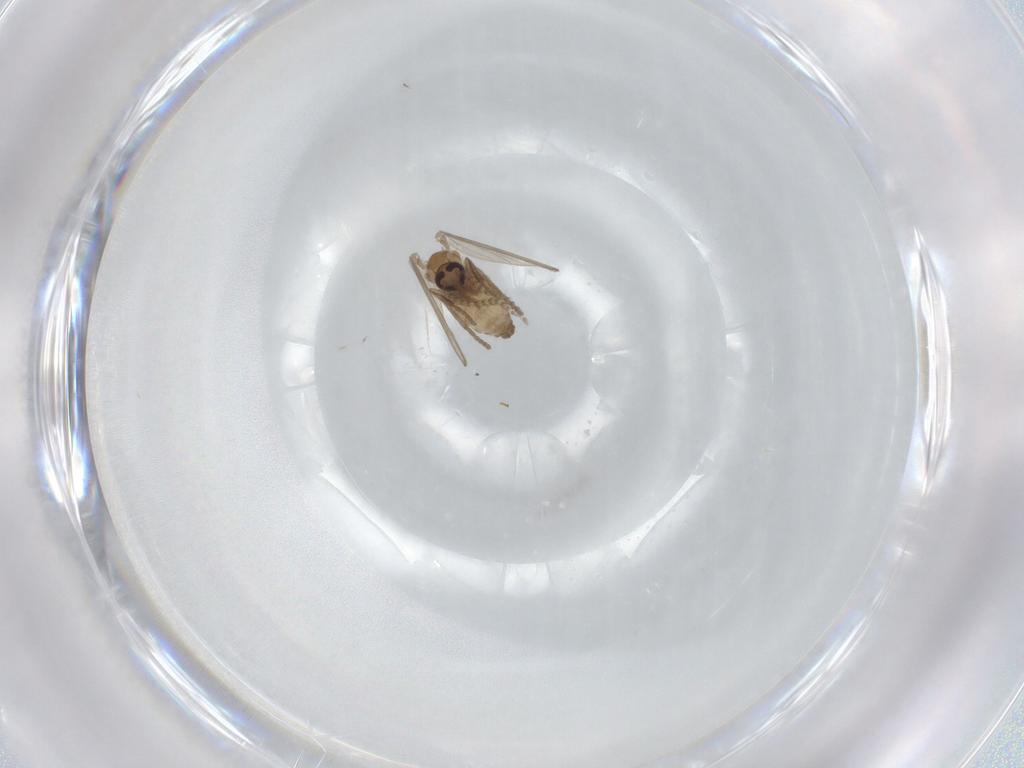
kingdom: Animalia
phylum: Arthropoda
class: Insecta
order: Diptera
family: Psychodidae
